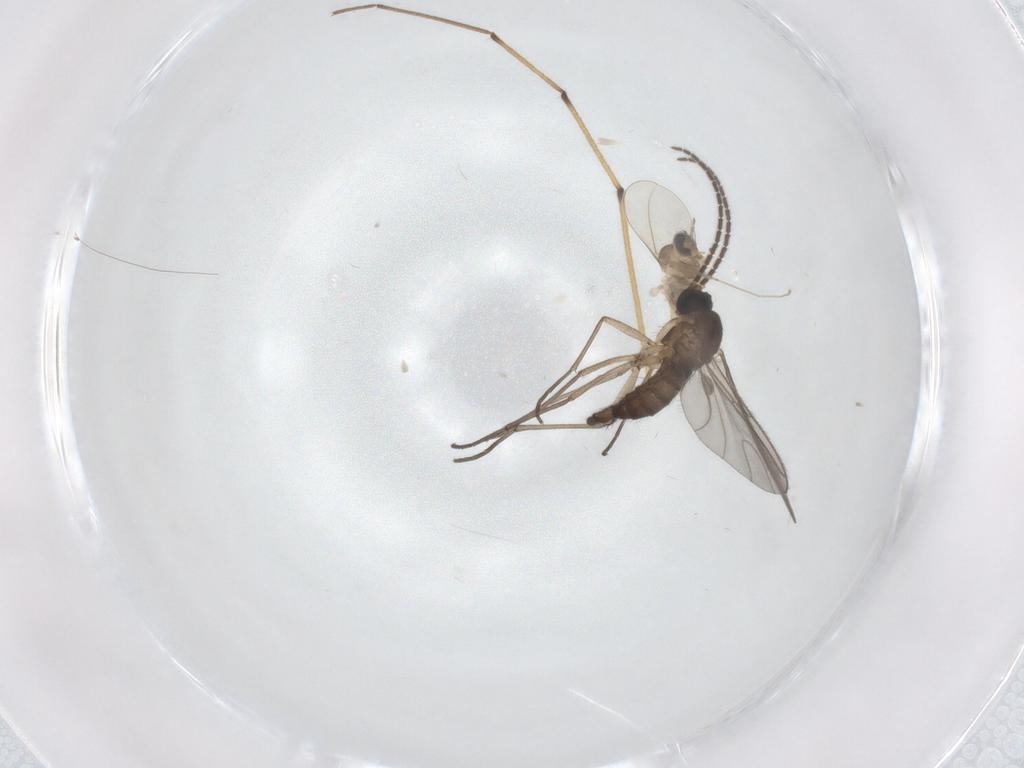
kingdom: Animalia
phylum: Arthropoda
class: Insecta
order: Diptera
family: Cecidomyiidae
